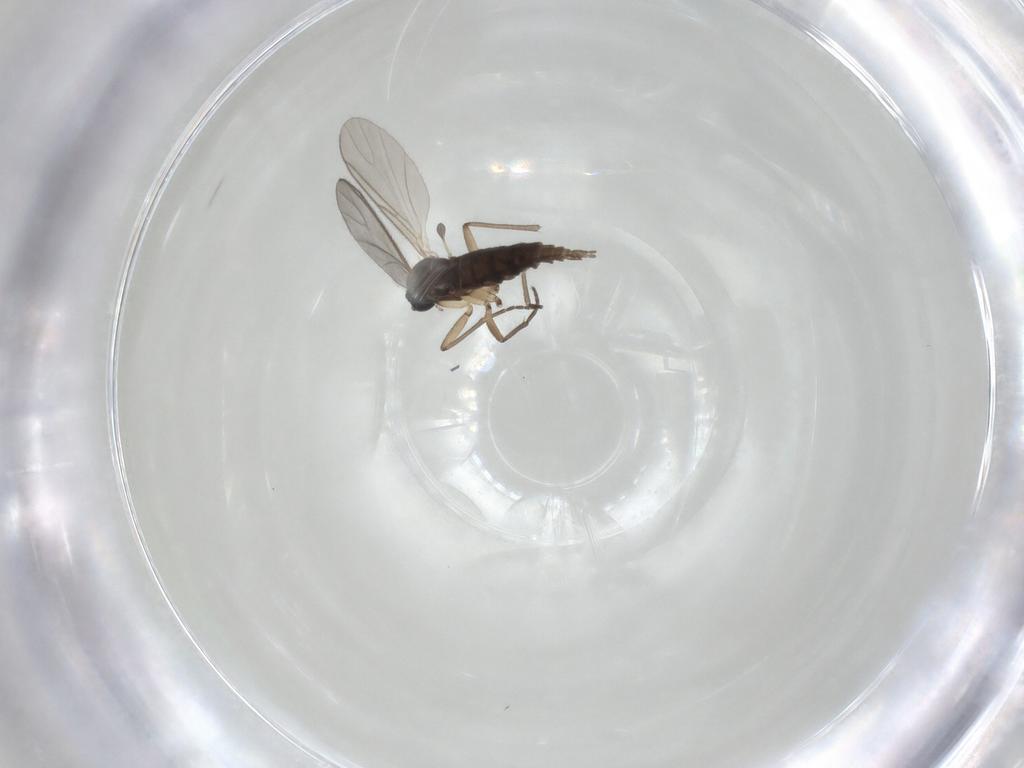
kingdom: Animalia
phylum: Arthropoda
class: Insecta
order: Diptera
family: Sciaridae
